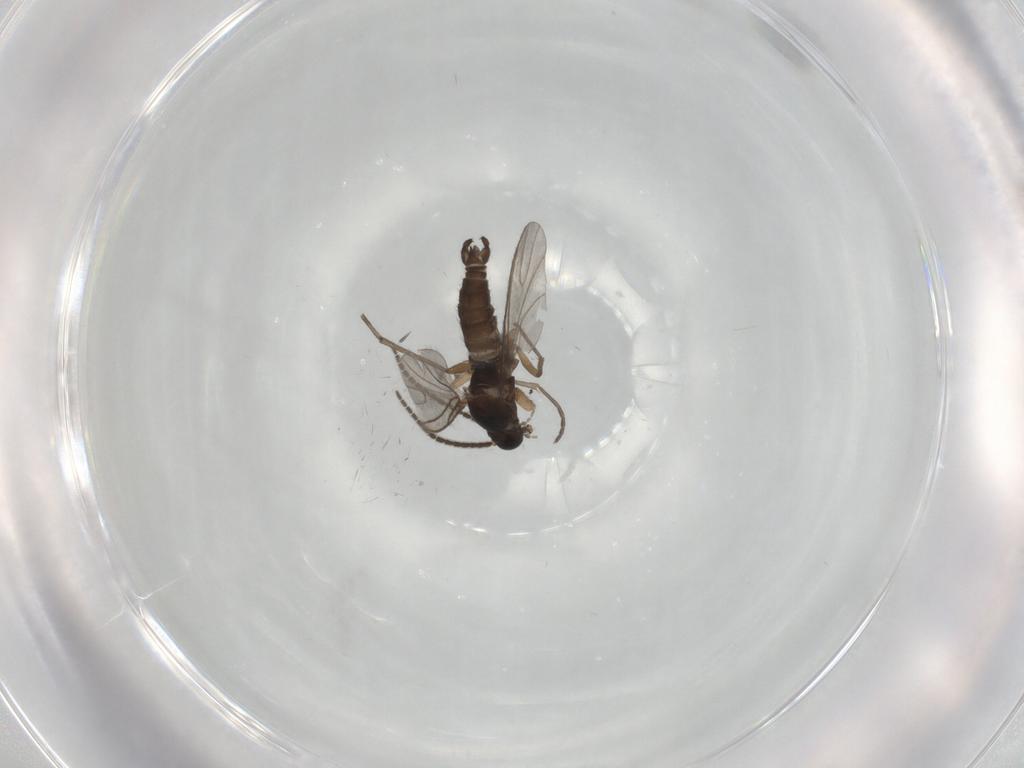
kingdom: Animalia
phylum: Arthropoda
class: Insecta
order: Diptera
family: Sciaridae
